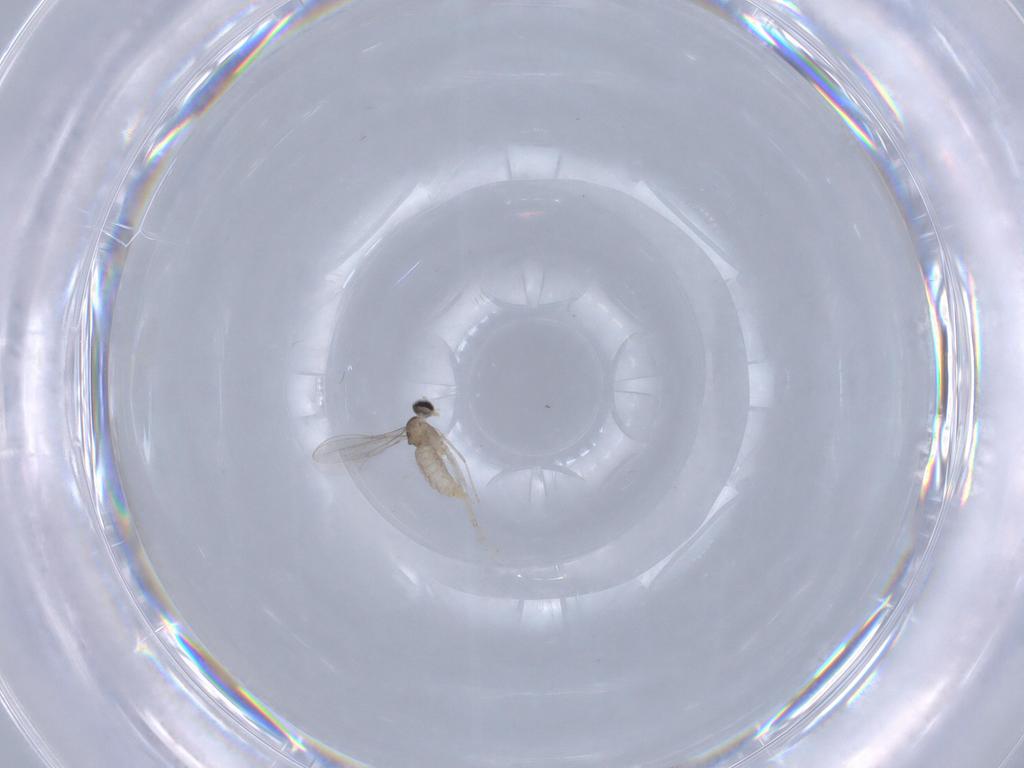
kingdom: Animalia
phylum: Arthropoda
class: Insecta
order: Diptera
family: Cecidomyiidae
